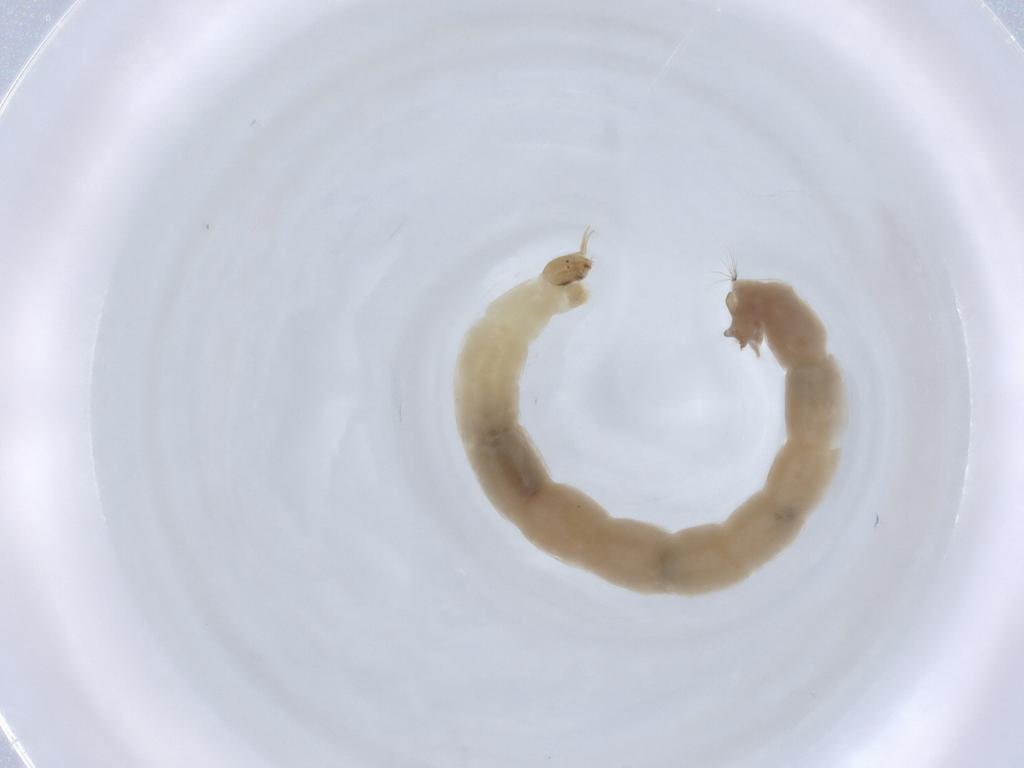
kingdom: Animalia
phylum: Arthropoda
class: Insecta
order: Diptera
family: Chironomidae
